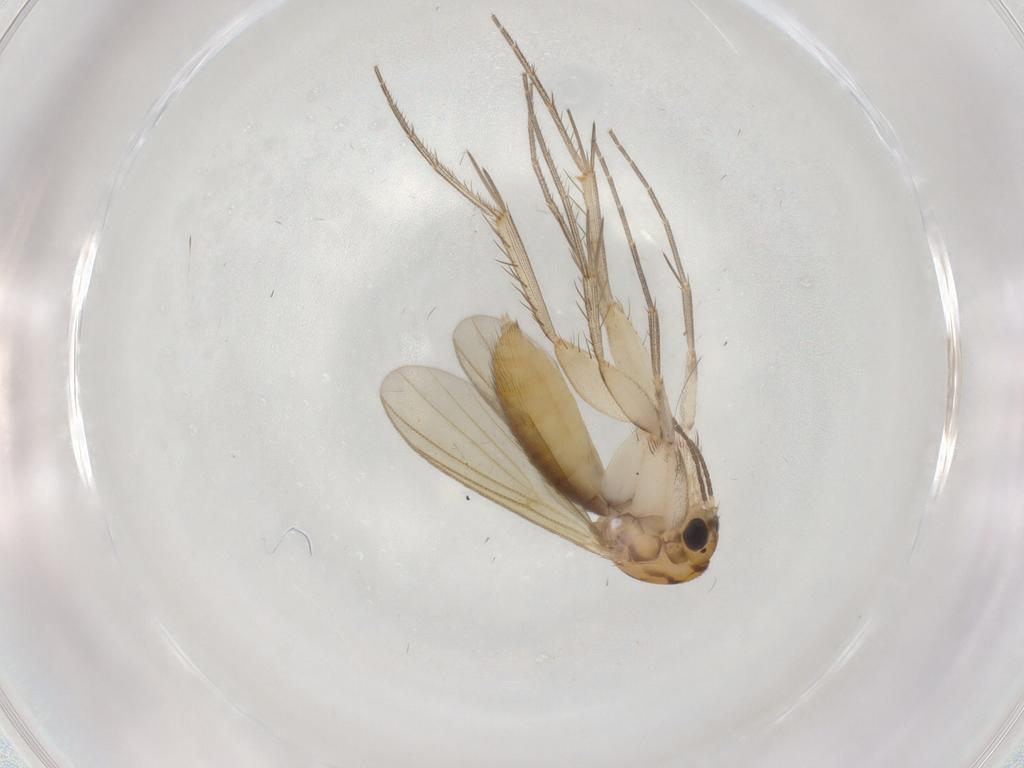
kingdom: Animalia
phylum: Arthropoda
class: Insecta
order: Diptera
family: Mycetophilidae
